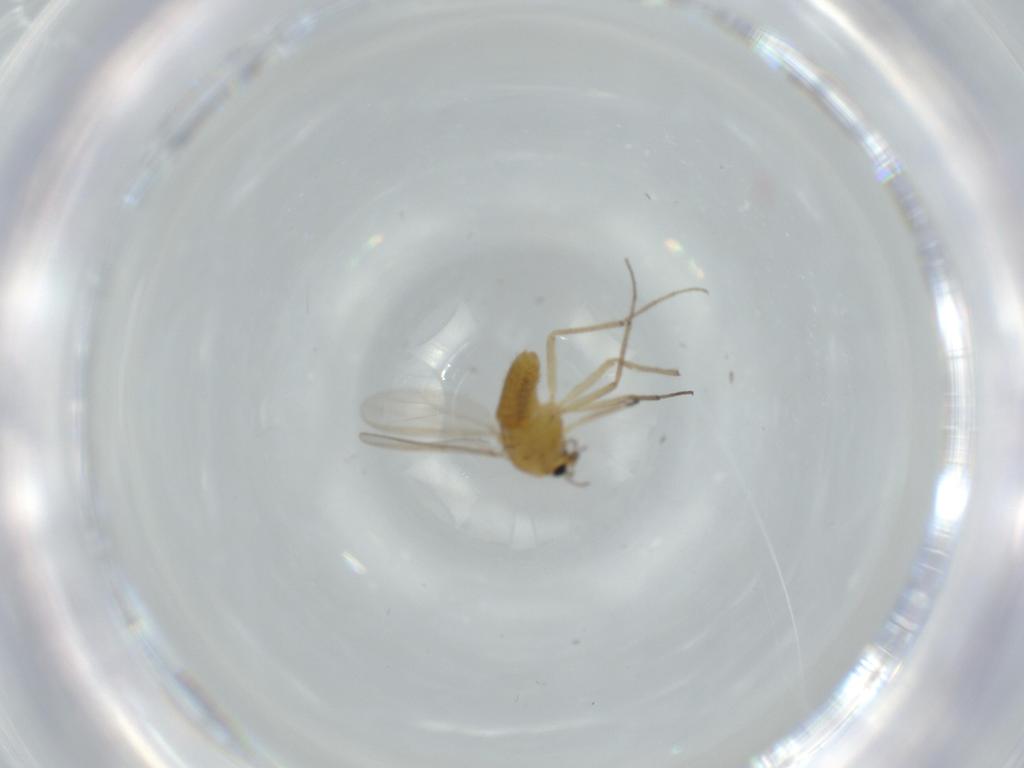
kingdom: Animalia
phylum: Arthropoda
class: Insecta
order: Diptera
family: Chironomidae
